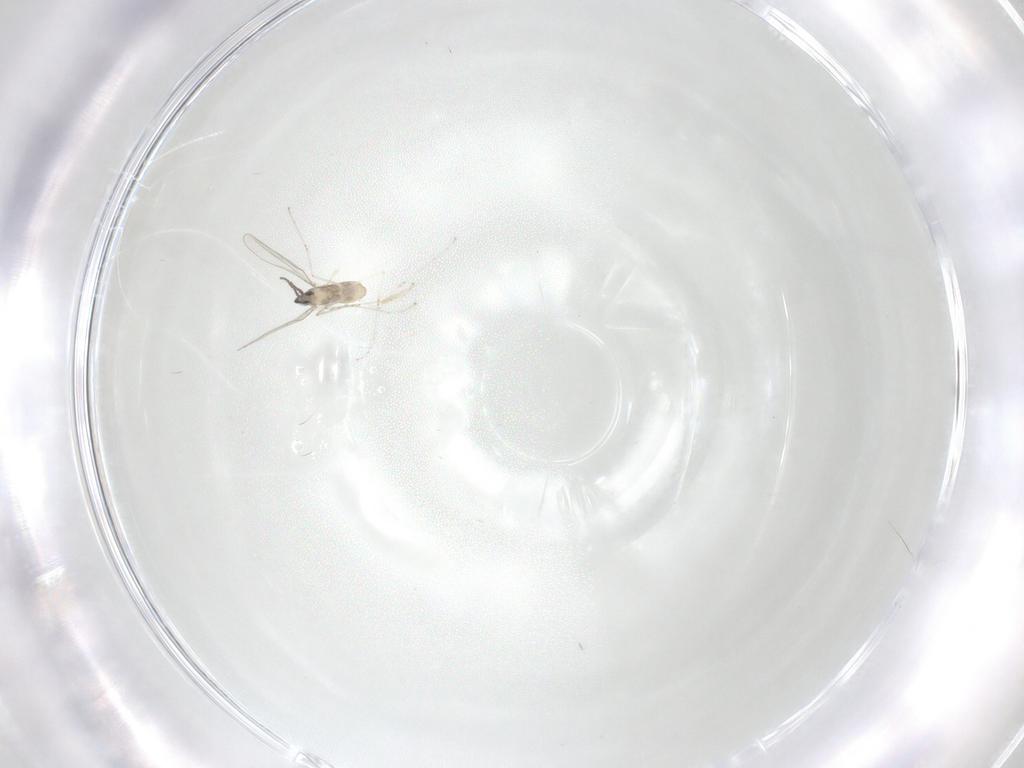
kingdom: Animalia
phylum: Arthropoda
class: Insecta
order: Diptera
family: Cecidomyiidae
